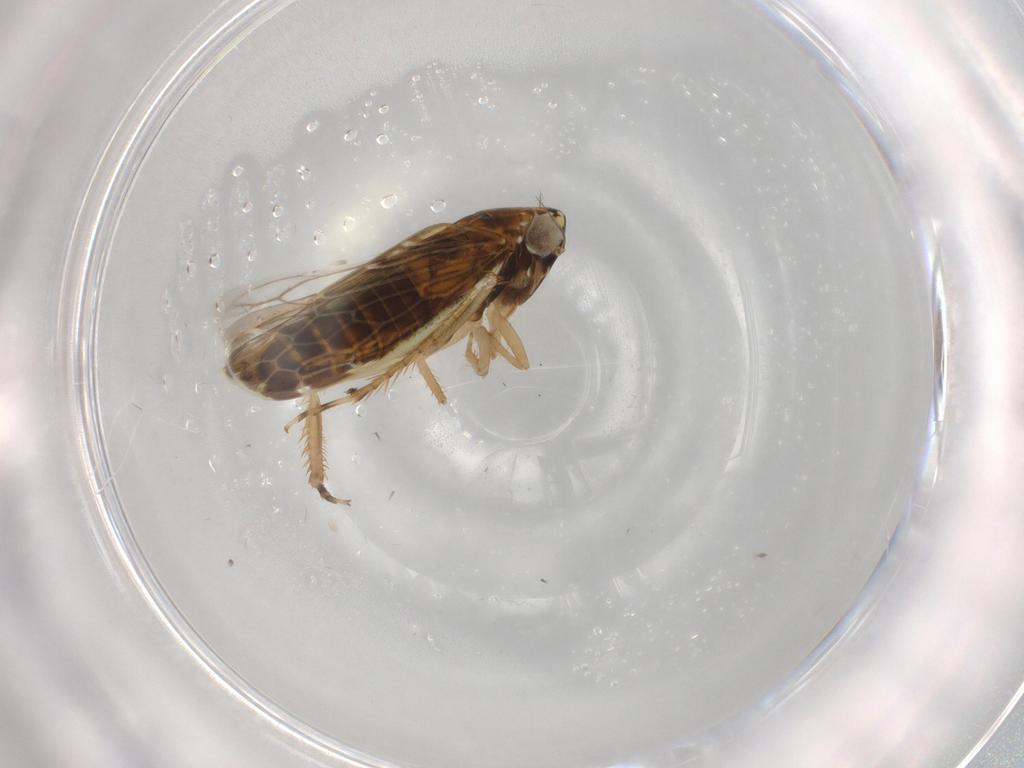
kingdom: Animalia
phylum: Arthropoda
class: Insecta
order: Hemiptera
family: Cicadellidae
